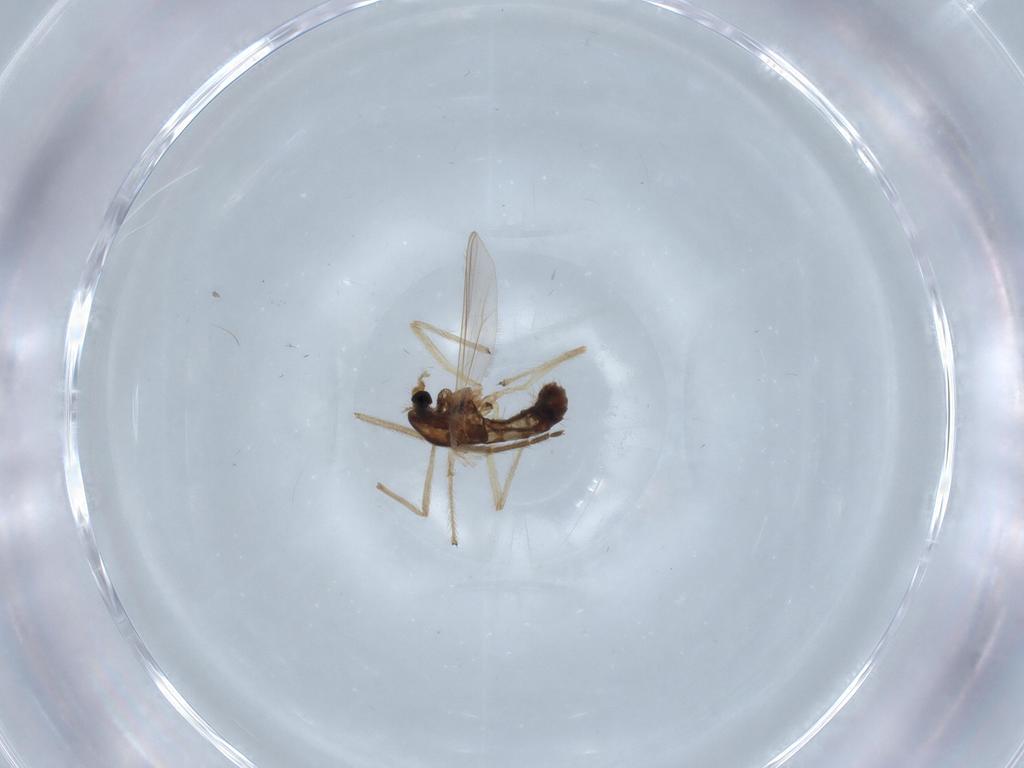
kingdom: Animalia
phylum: Arthropoda
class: Insecta
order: Diptera
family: Chironomidae
